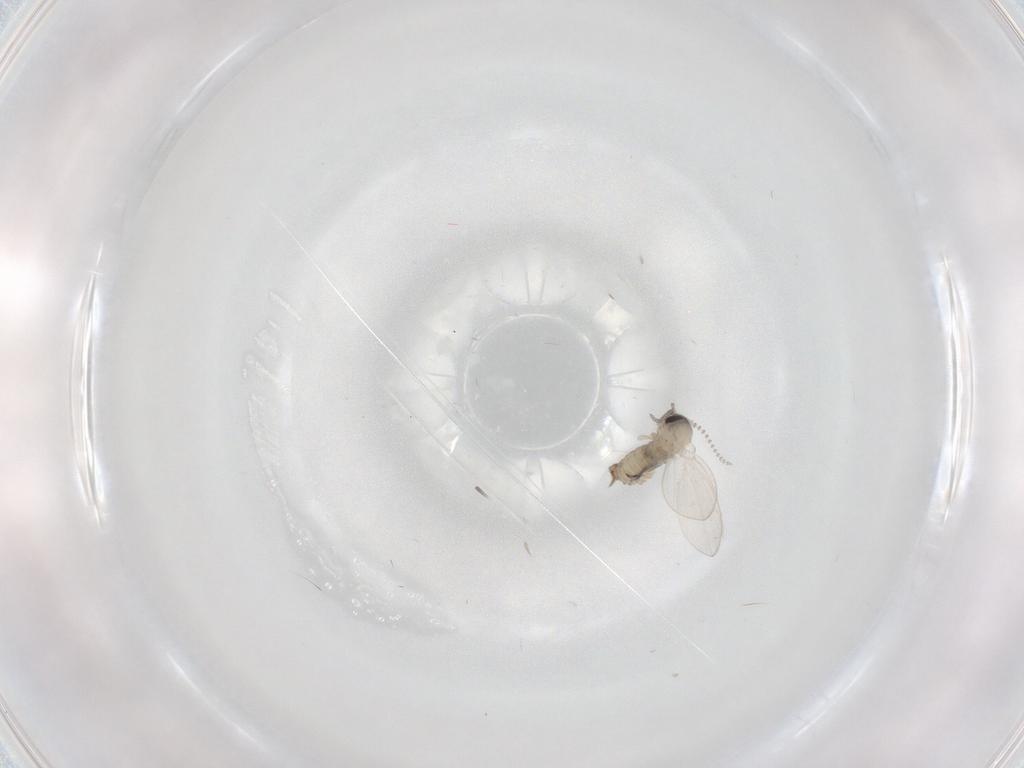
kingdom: Animalia
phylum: Arthropoda
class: Insecta
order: Diptera
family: Psychodidae
